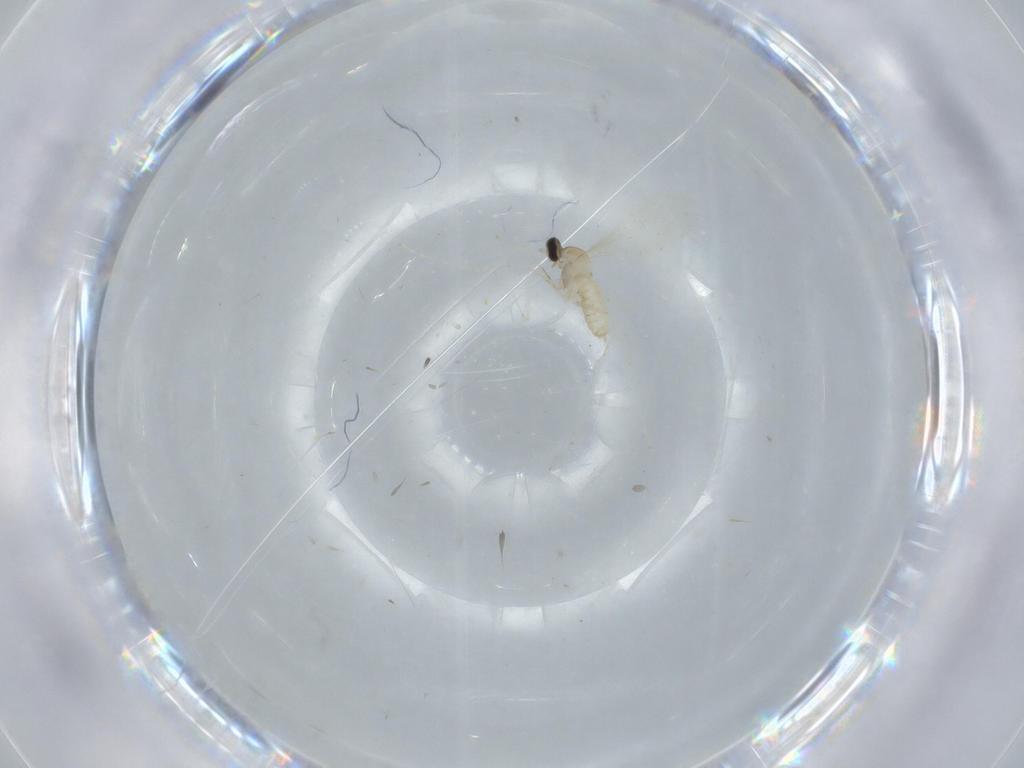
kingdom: Animalia
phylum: Arthropoda
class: Insecta
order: Diptera
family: Cecidomyiidae
